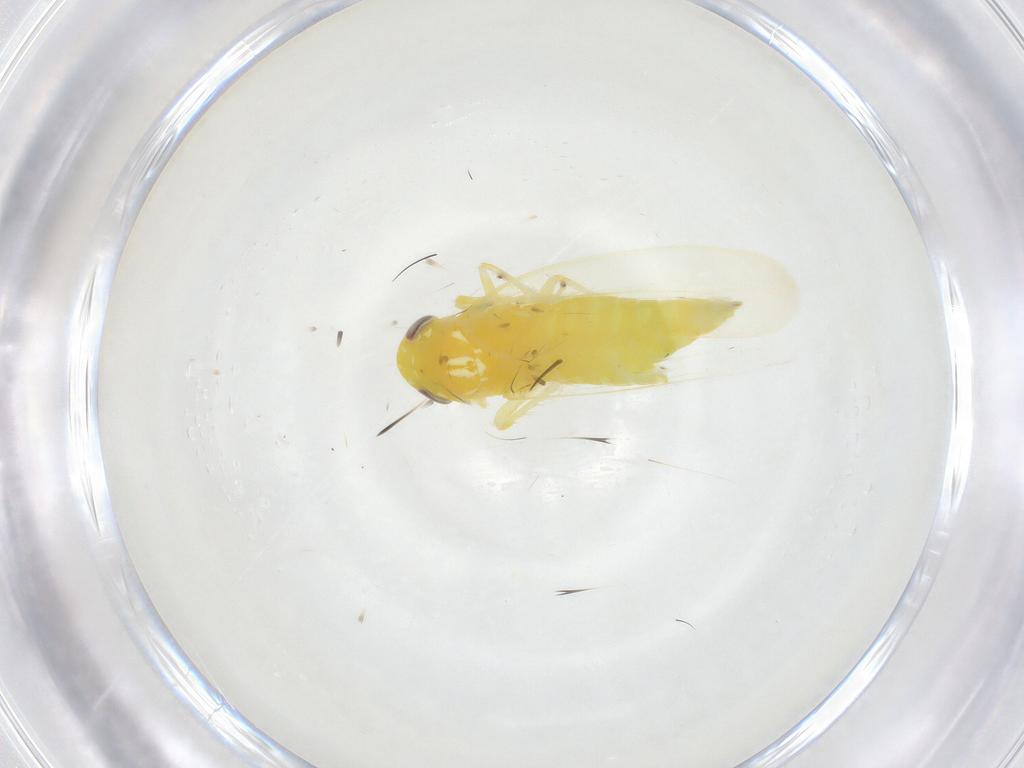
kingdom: Animalia
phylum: Arthropoda
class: Insecta
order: Hemiptera
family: Cicadellidae
